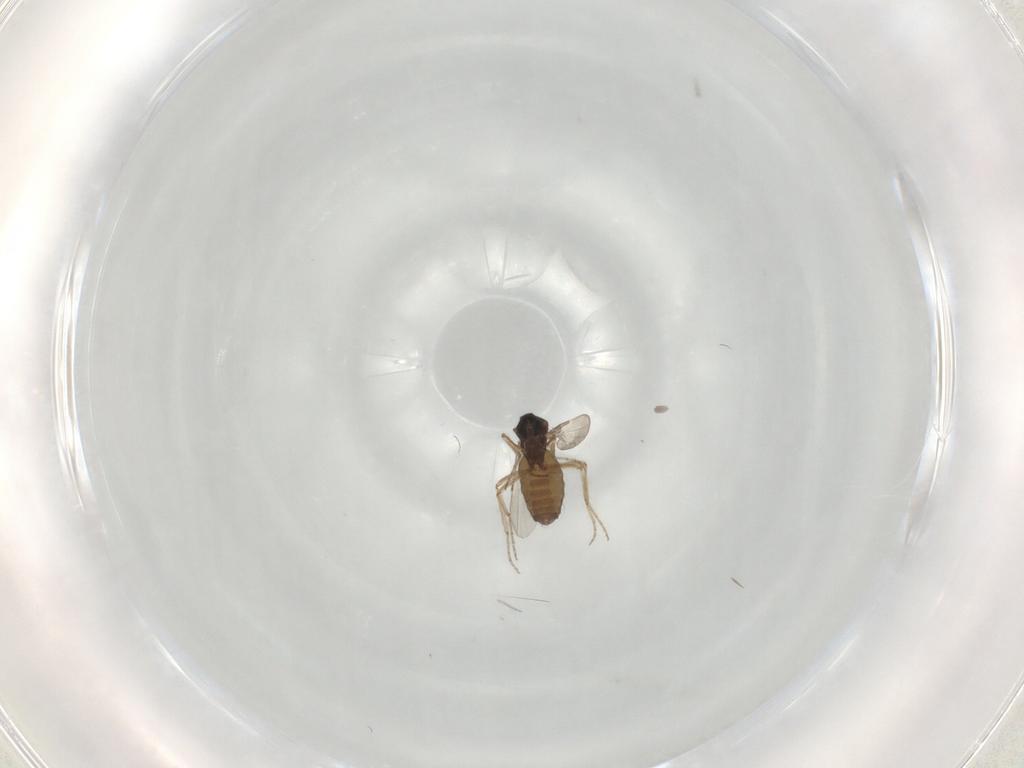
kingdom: Animalia
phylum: Arthropoda
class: Insecta
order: Diptera
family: Ceratopogonidae
